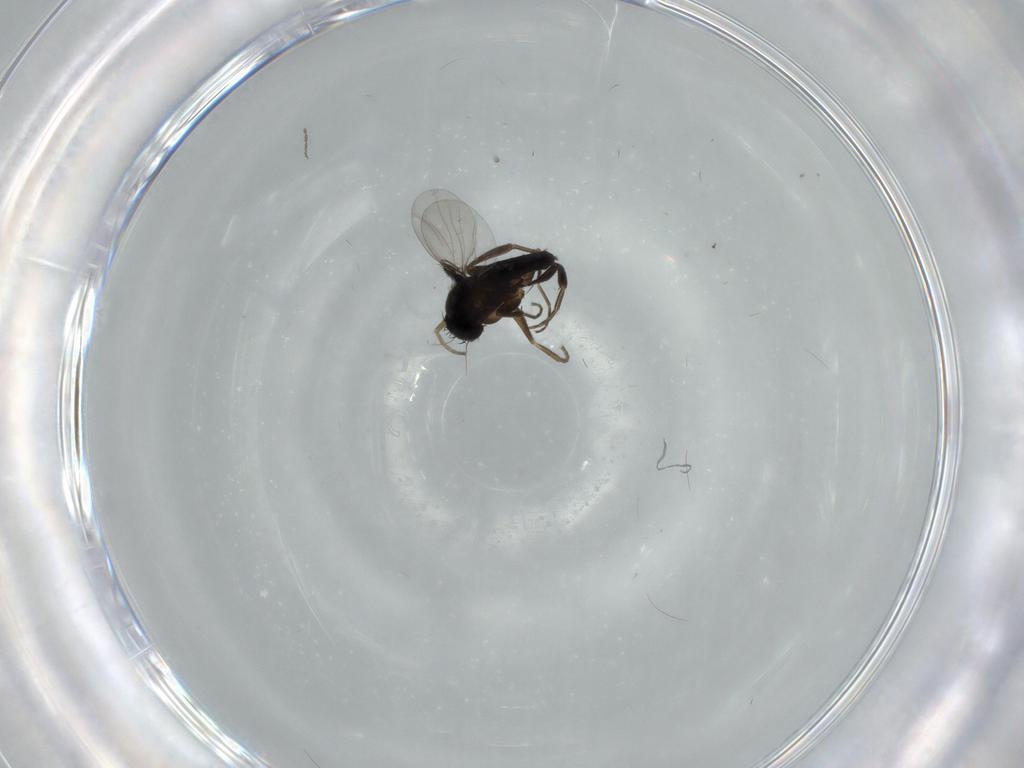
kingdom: Animalia
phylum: Arthropoda
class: Insecta
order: Diptera
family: Phoridae
